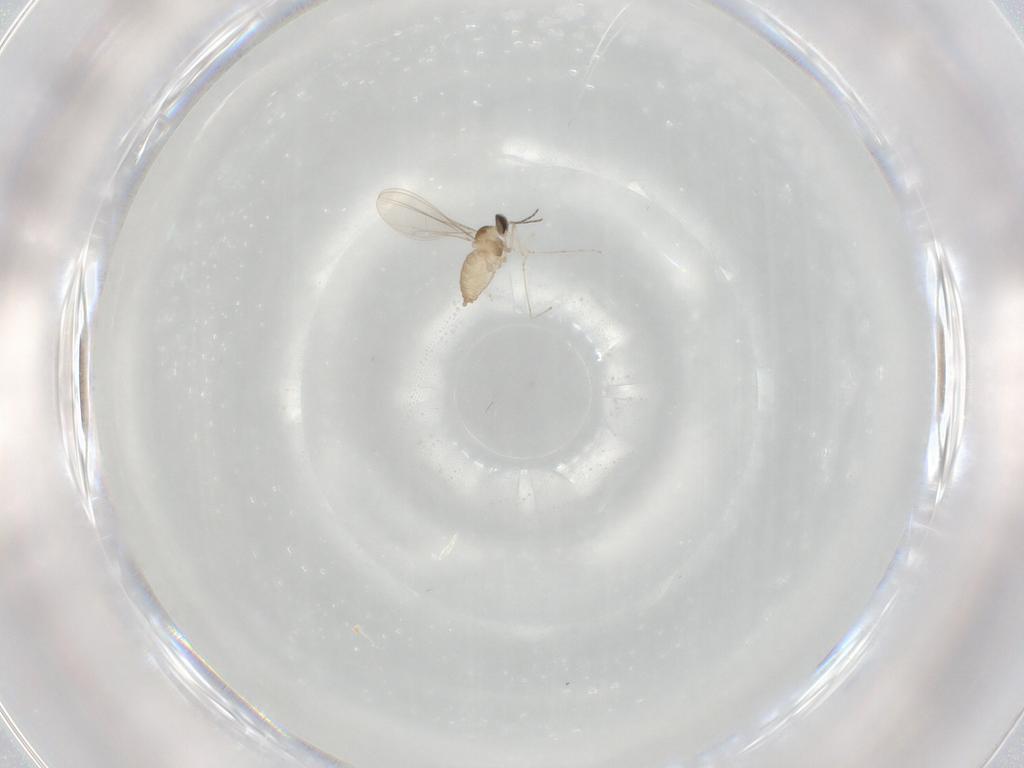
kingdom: Animalia
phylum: Arthropoda
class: Insecta
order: Diptera
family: Cecidomyiidae
